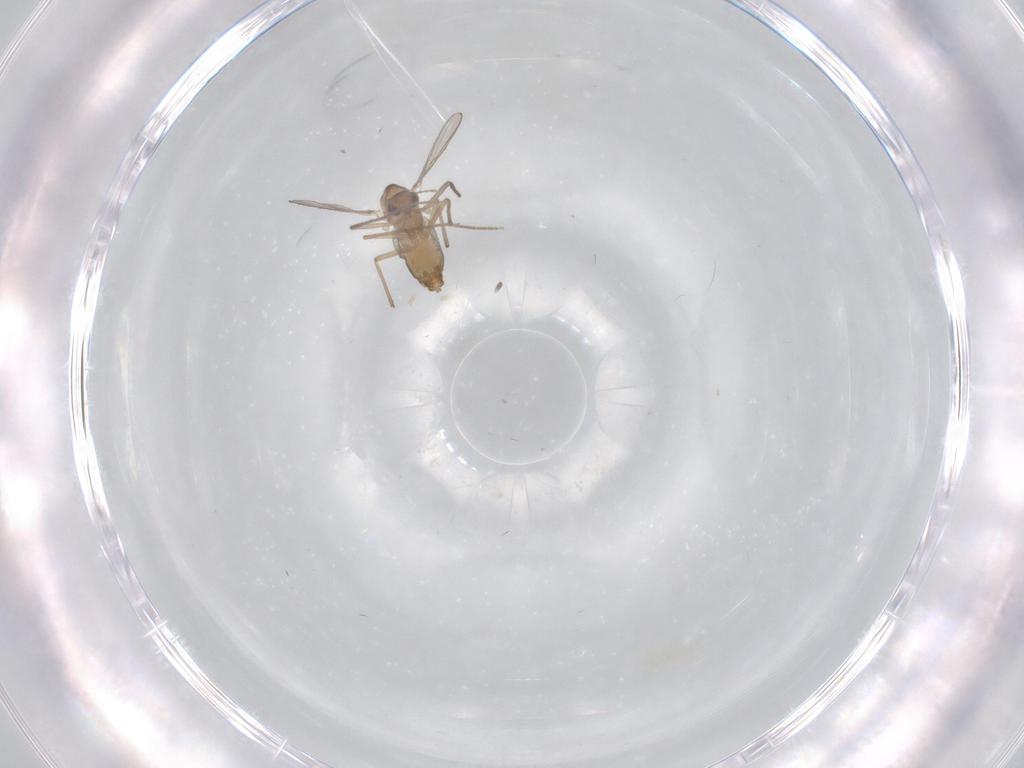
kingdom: Animalia
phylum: Arthropoda
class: Insecta
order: Diptera
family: Chironomidae
